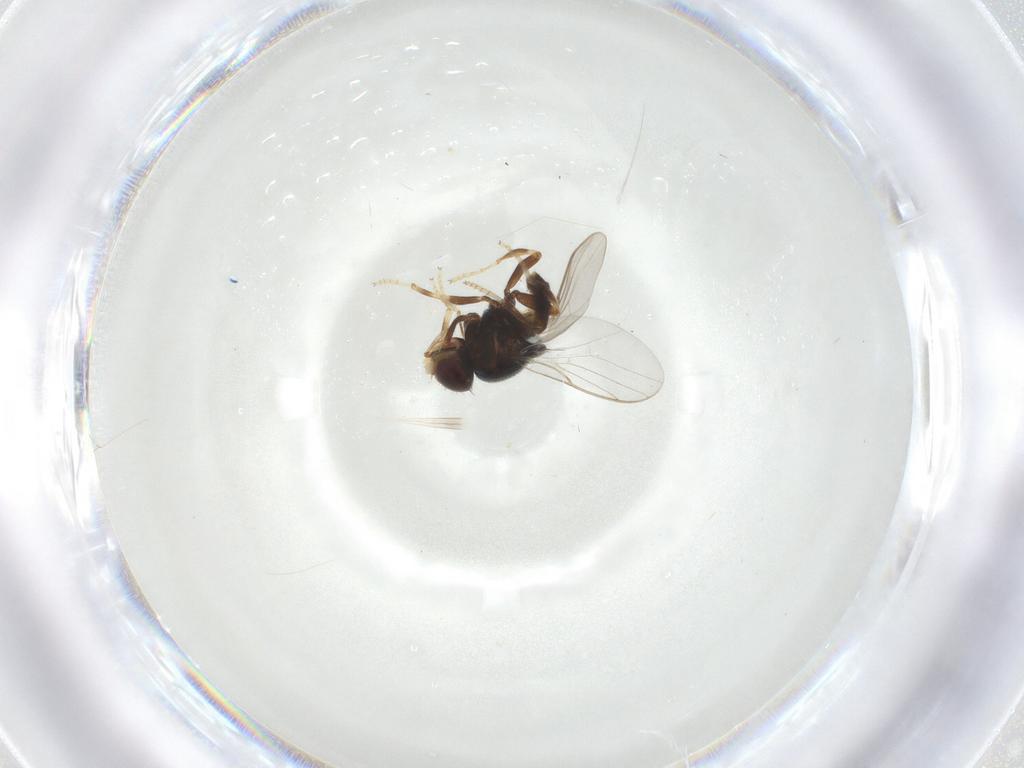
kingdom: Animalia
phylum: Arthropoda
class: Insecta
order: Diptera
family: Chloropidae
